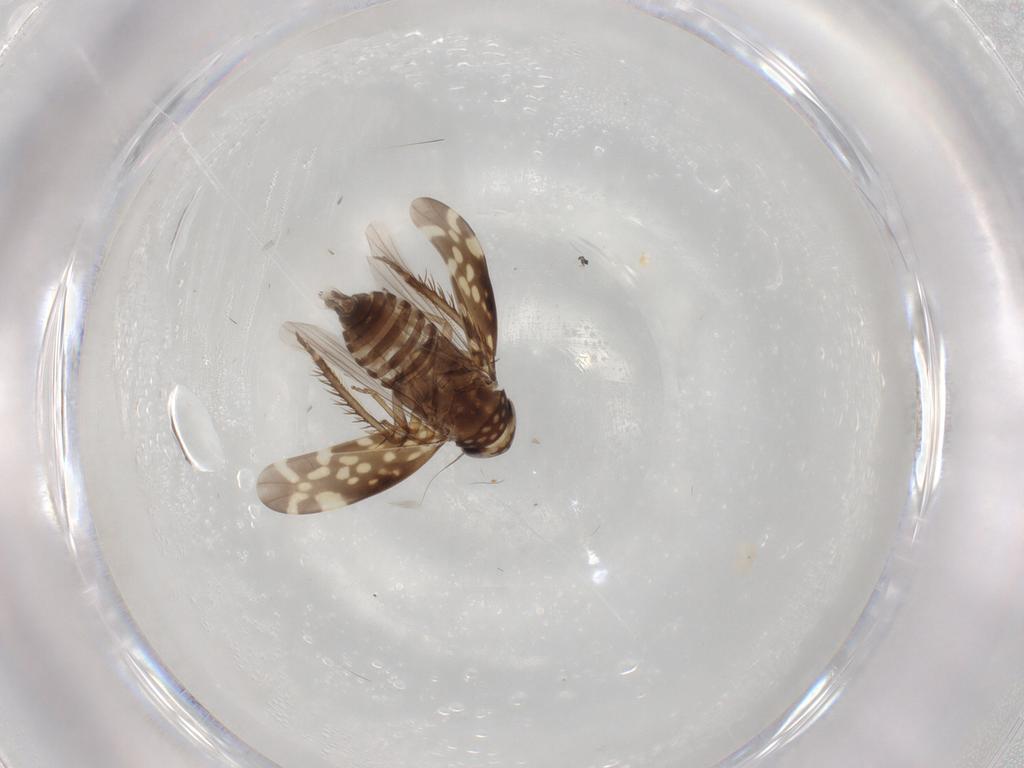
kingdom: Animalia
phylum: Arthropoda
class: Insecta
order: Hemiptera
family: Cicadellidae
